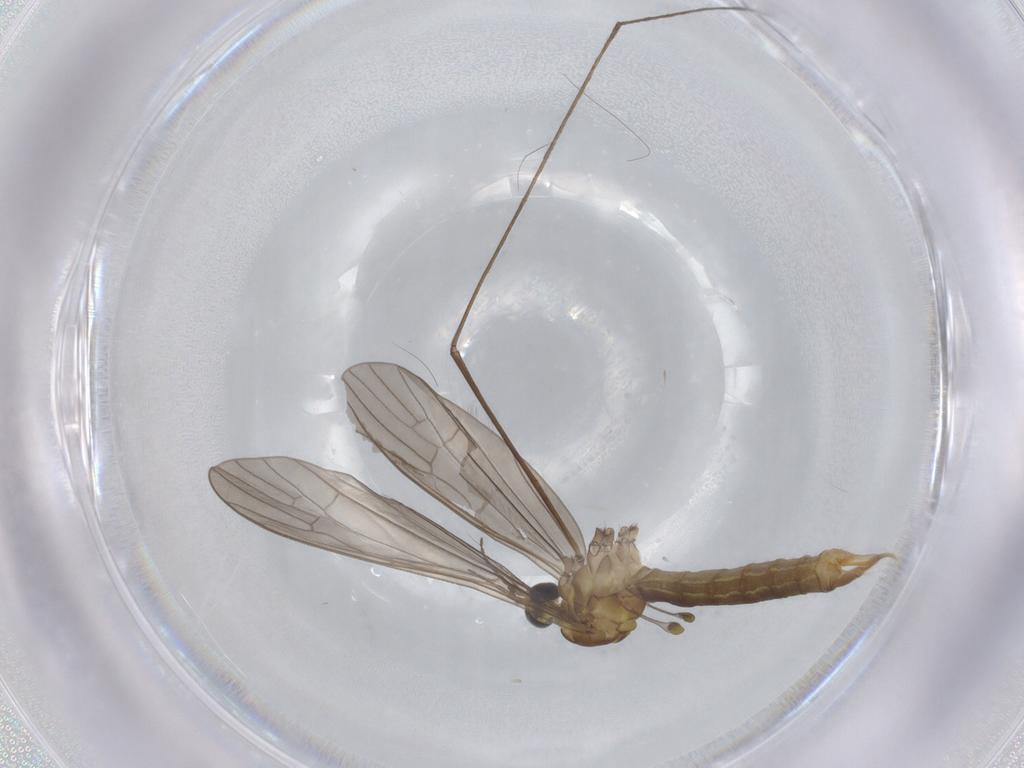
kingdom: Animalia
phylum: Arthropoda
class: Insecta
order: Diptera
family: Limoniidae
